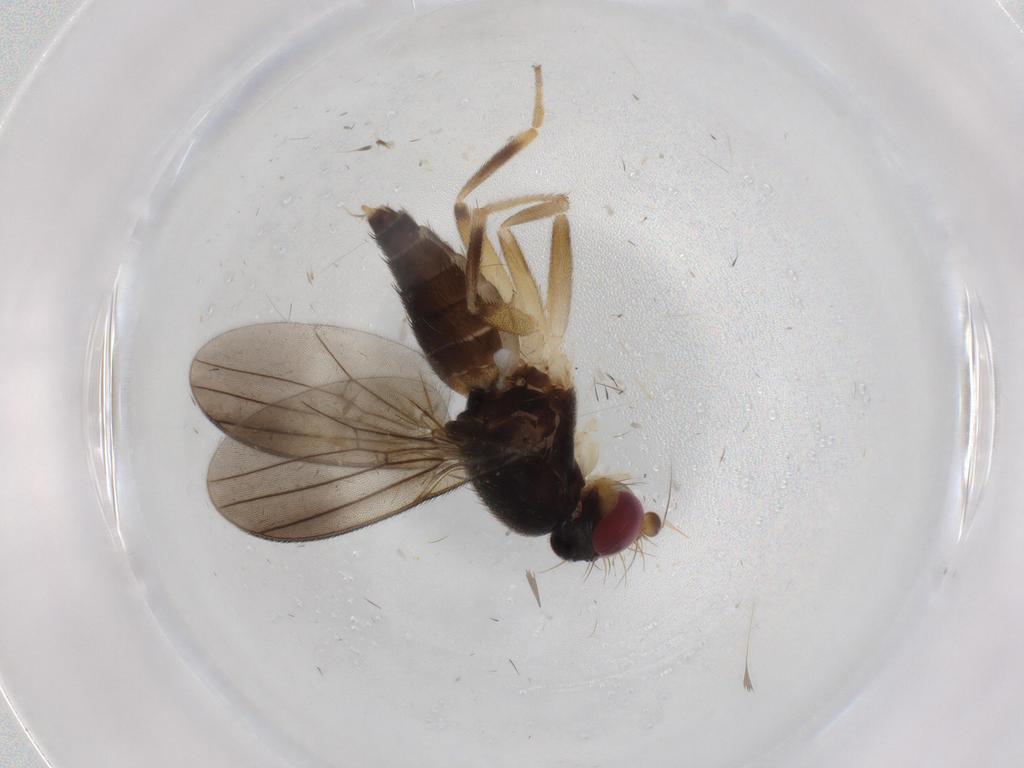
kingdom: Animalia
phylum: Arthropoda
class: Insecta
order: Diptera
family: Clusiidae
